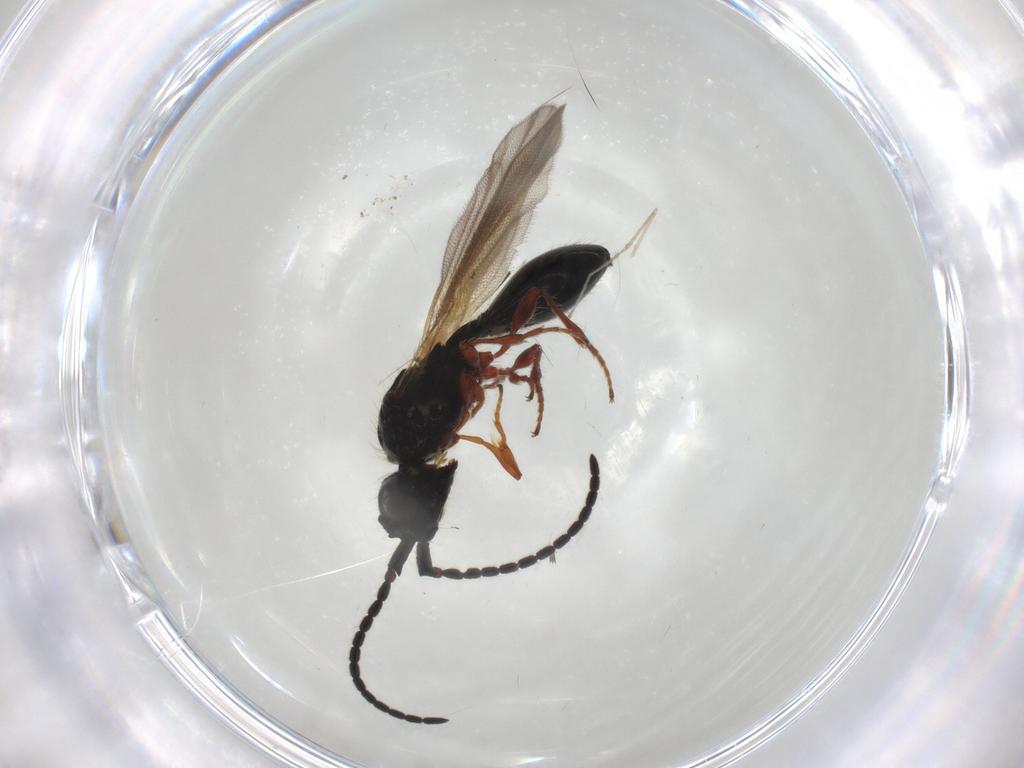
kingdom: Animalia
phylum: Arthropoda
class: Insecta
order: Hymenoptera
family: Diapriidae
